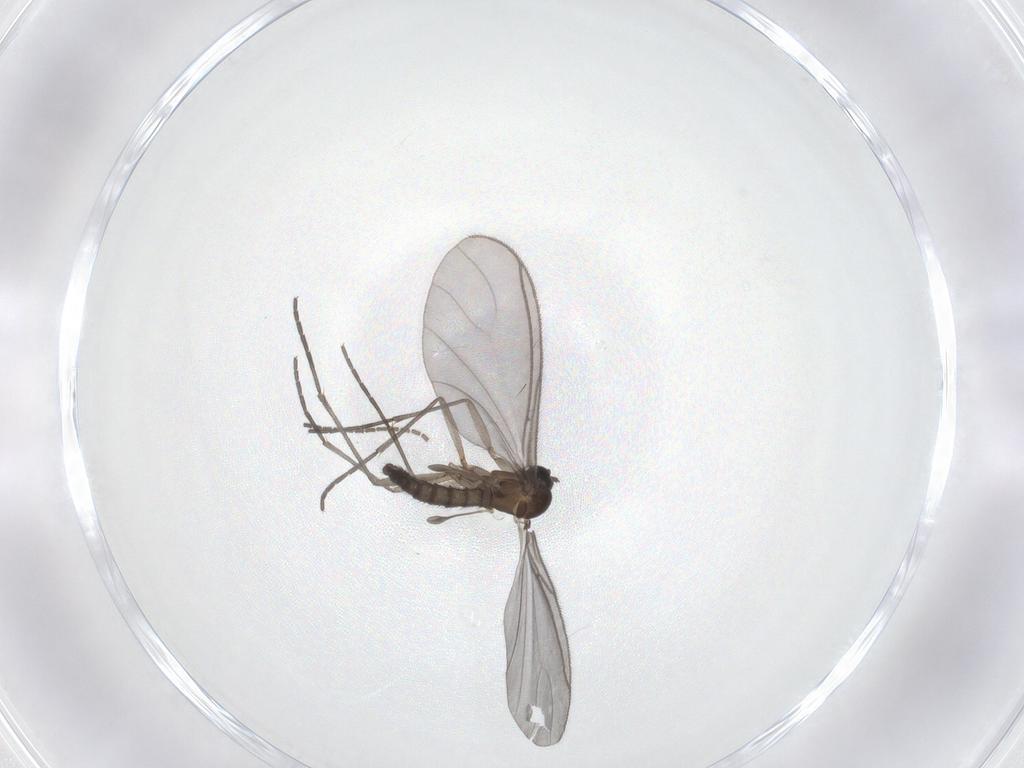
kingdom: Animalia
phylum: Arthropoda
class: Insecta
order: Diptera
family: Sciaridae
